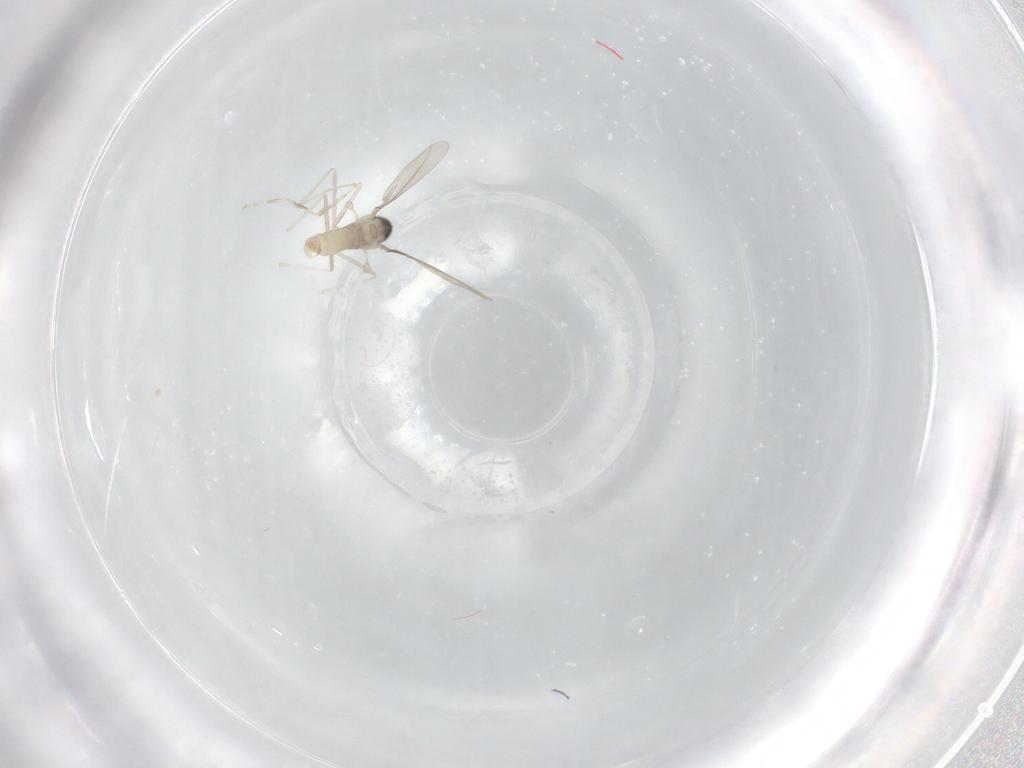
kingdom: Animalia
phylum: Arthropoda
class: Insecta
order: Diptera
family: Cecidomyiidae
